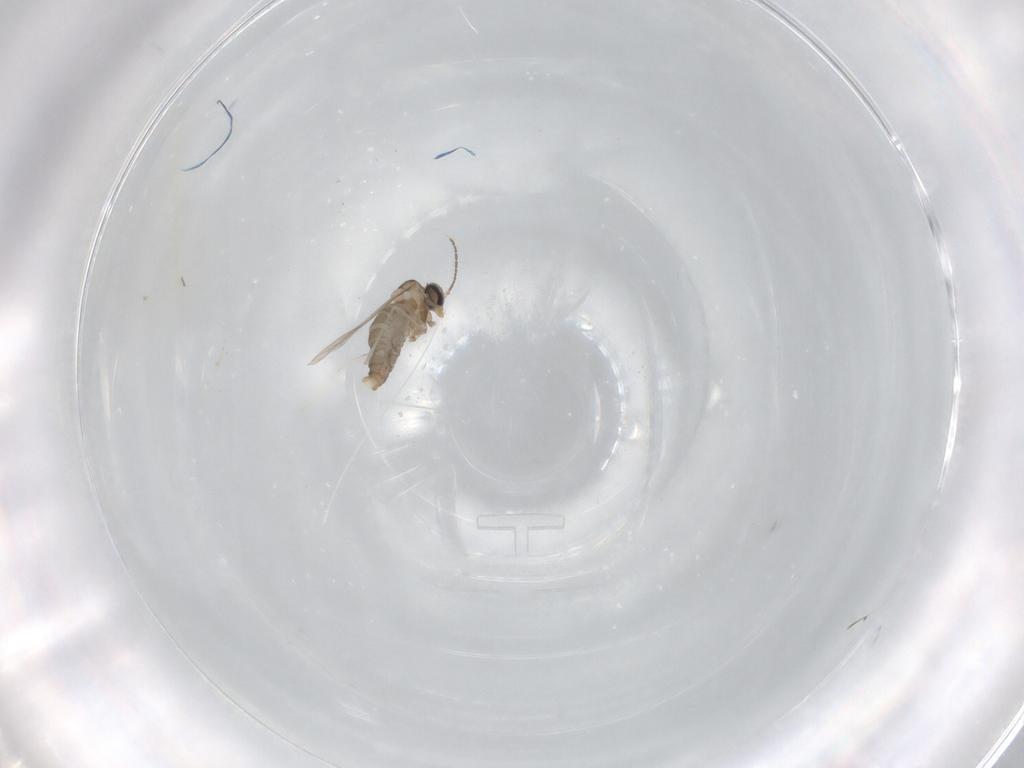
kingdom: Animalia
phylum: Arthropoda
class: Insecta
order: Diptera
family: Cecidomyiidae
